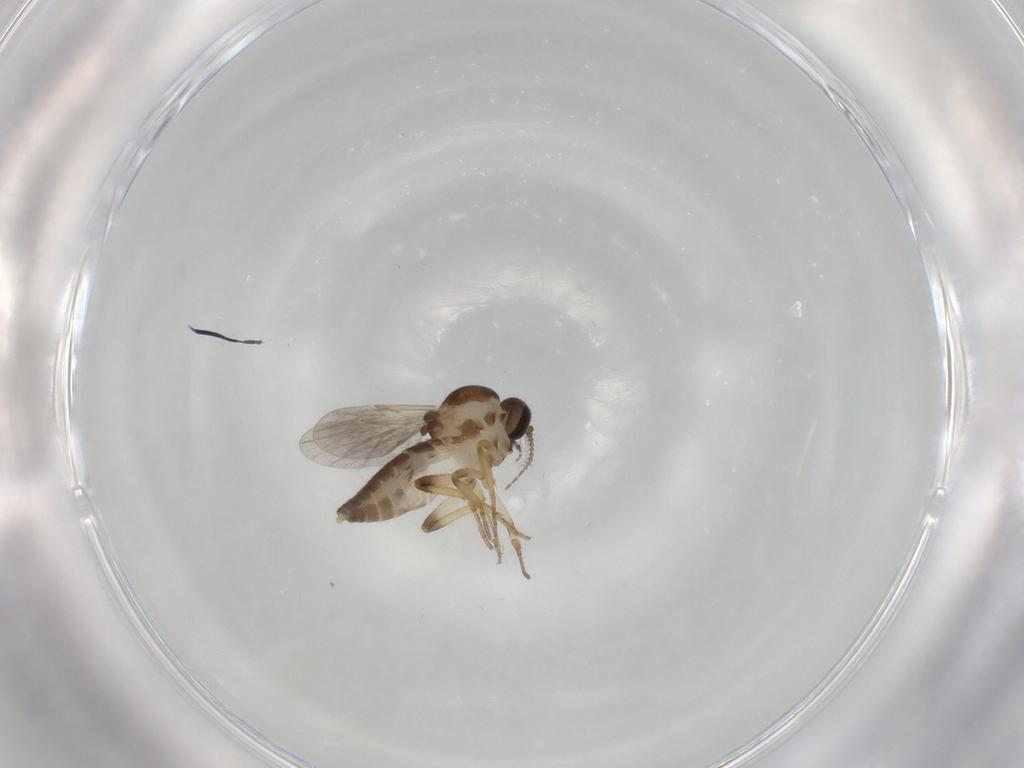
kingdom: Animalia
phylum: Arthropoda
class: Insecta
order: Diptera
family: Ceratopogonidae
